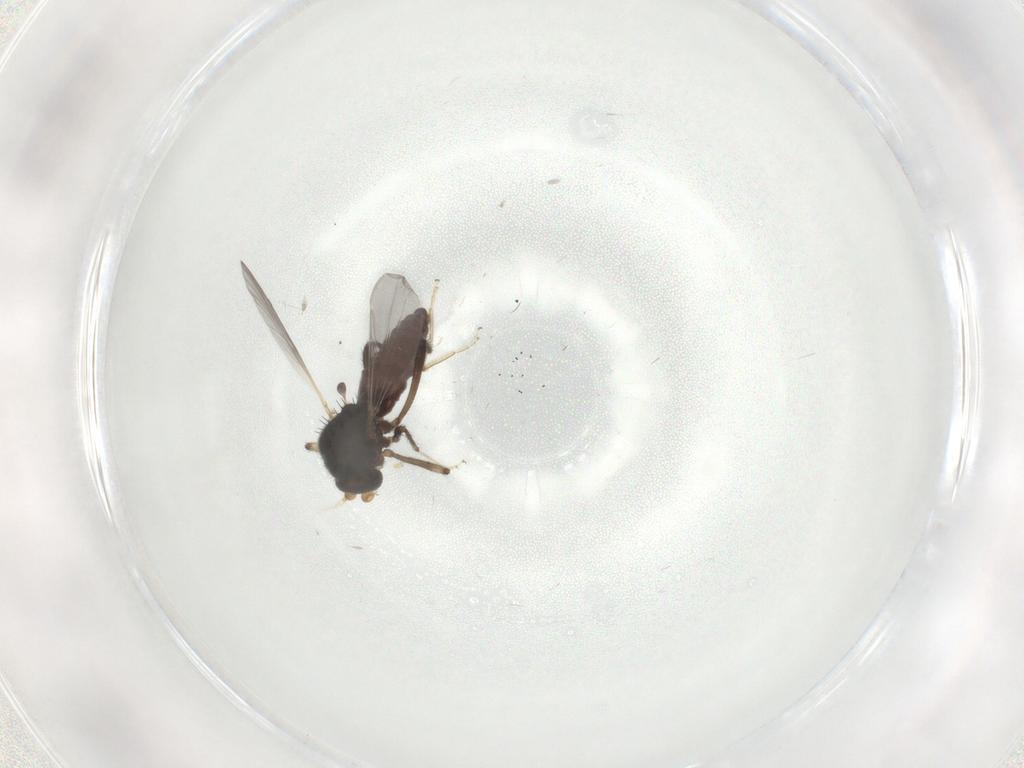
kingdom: Animalia
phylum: Arthropoda
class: Insecta
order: Diptera
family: Ceratopogonidae
